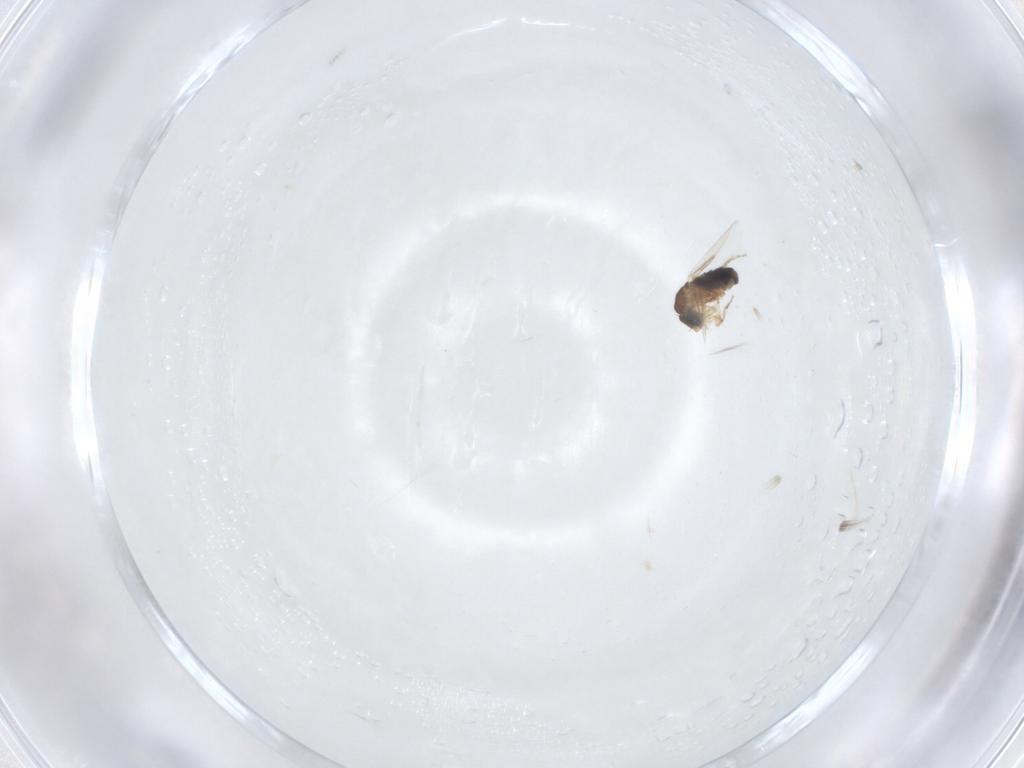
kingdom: Animalia
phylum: Arthropoda
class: Insecta
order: Diptera
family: Phoridae
